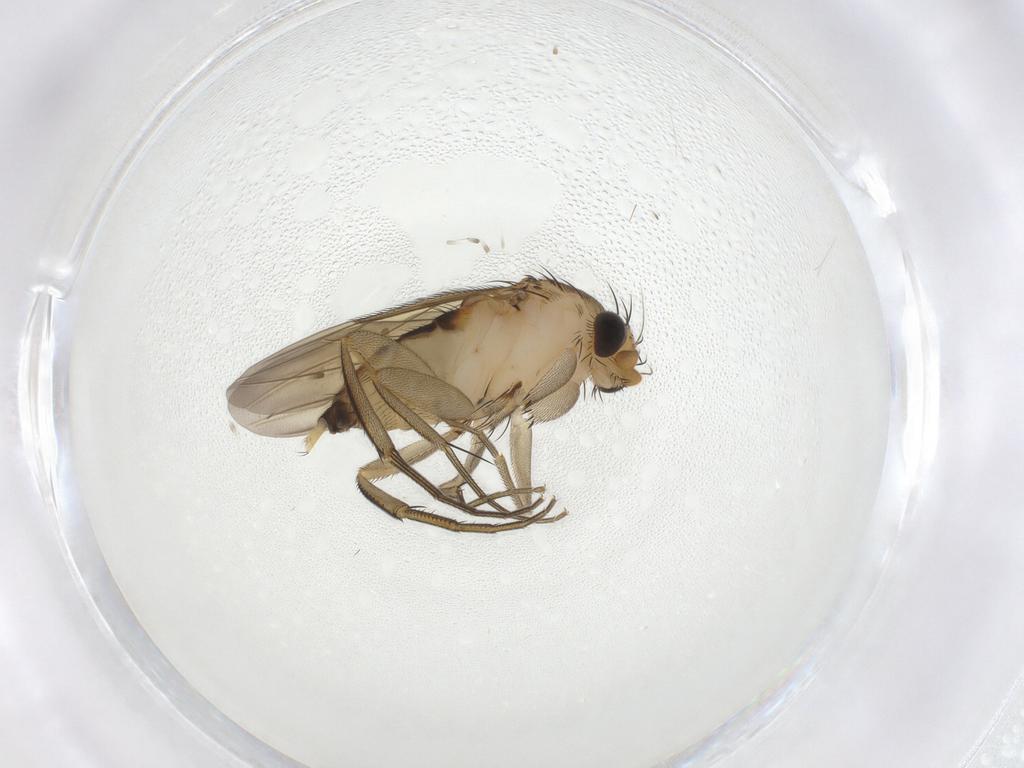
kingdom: Animalia
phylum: Arthropoda
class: Insecta
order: Diptera
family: Phoridae
